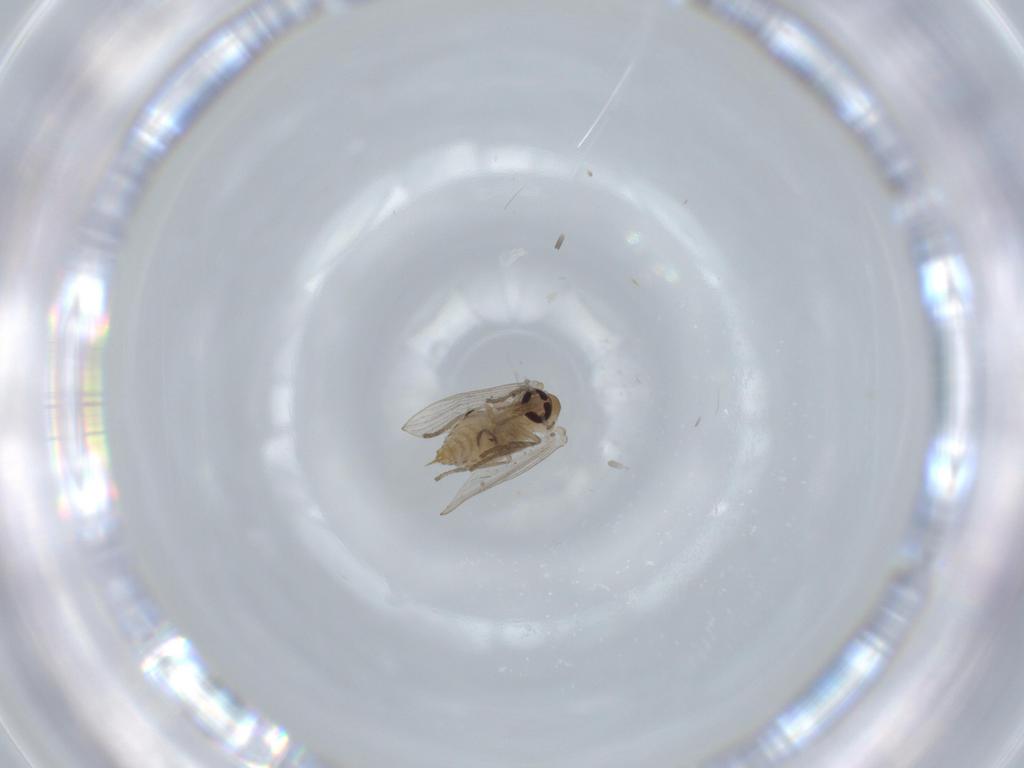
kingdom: Animalia
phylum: Arthropoda
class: Insecta
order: Diptera
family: Psychodidae
